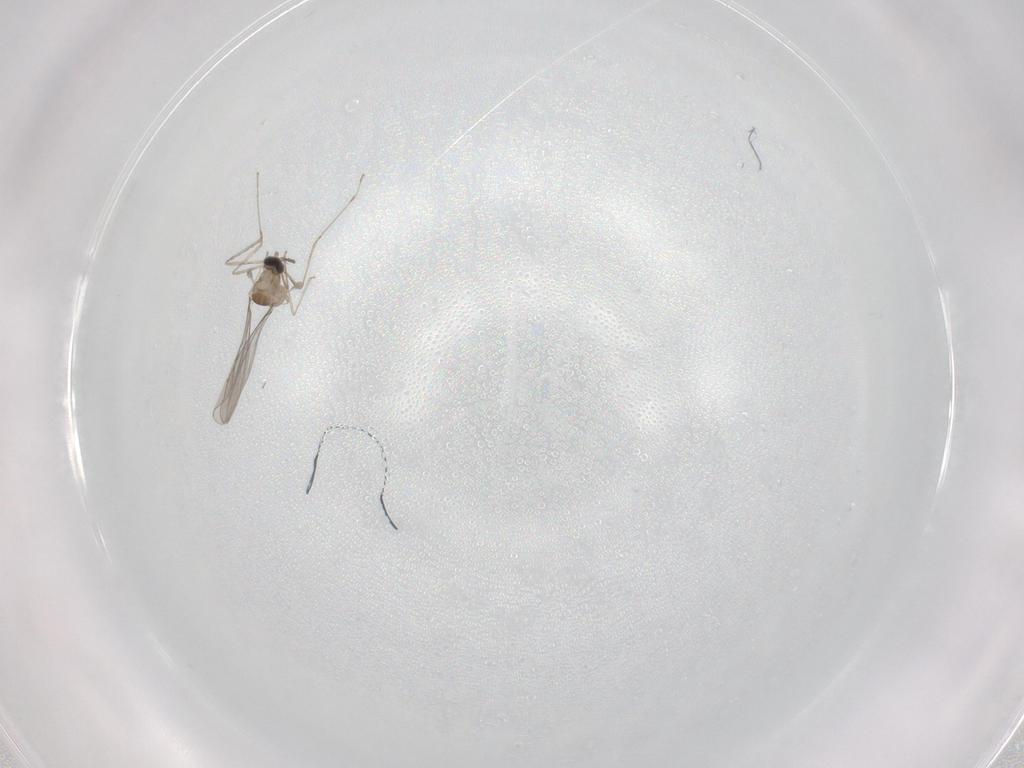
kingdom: Animalia
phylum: Arthropoda
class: Insecta
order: Diptera
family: Cecidomyiidae
